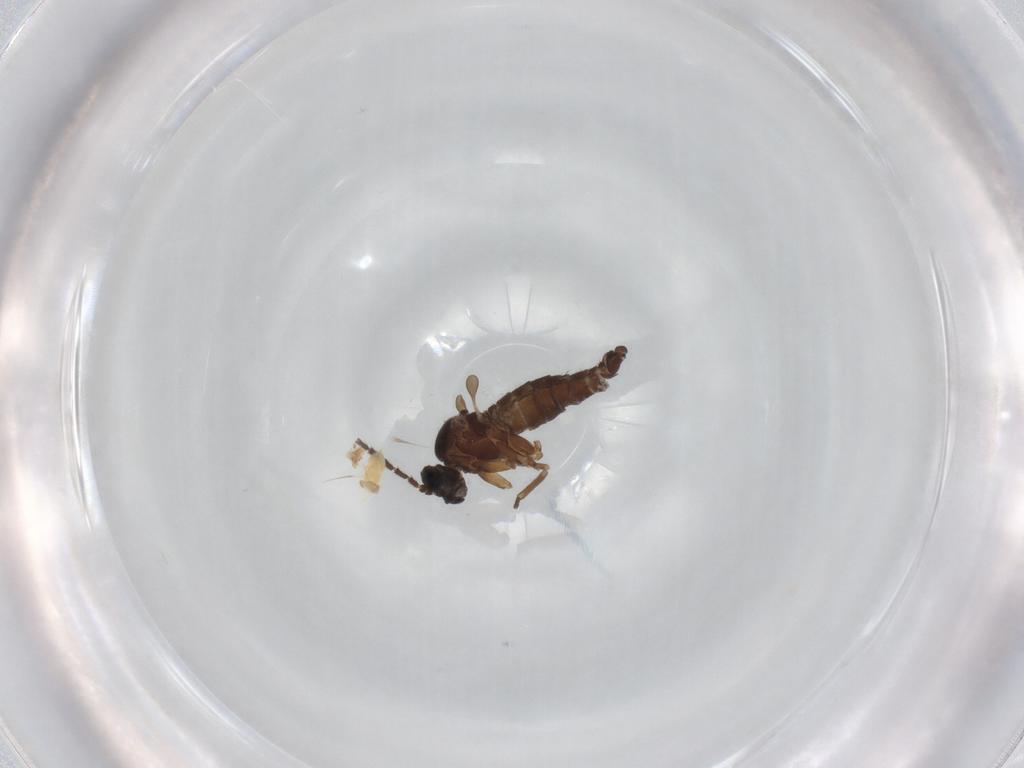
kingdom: Animalia
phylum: Arthropoda
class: Insecta
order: Diptera
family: Sciaridae
